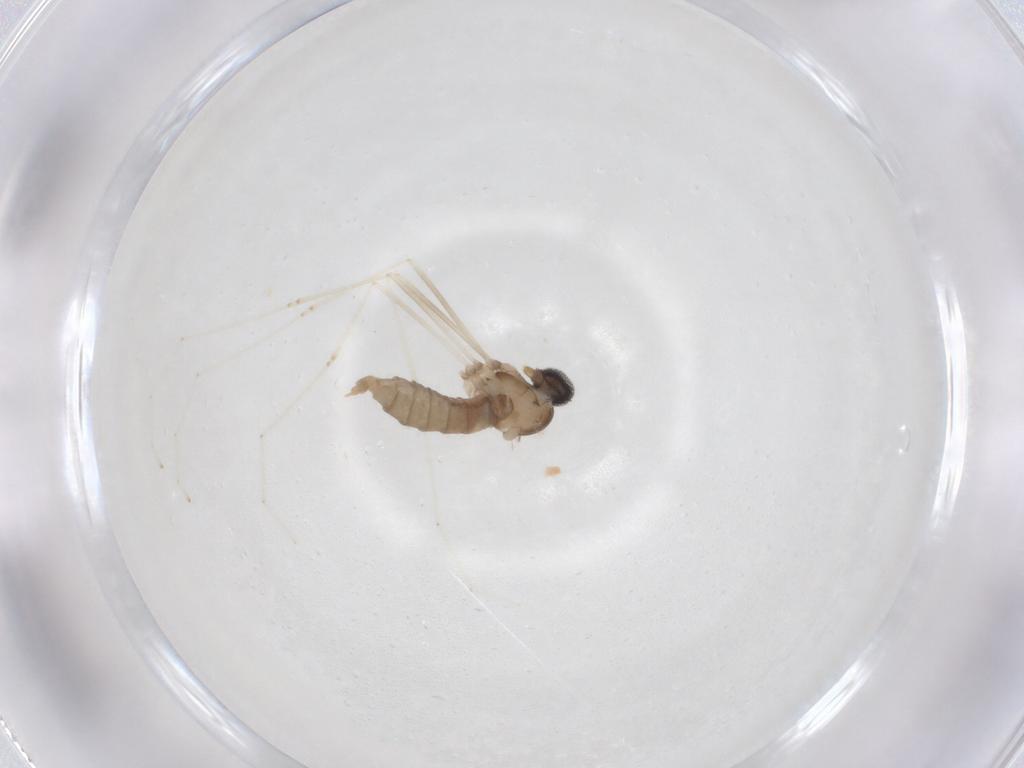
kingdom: Animalia
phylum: Arthropoda
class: Insecta
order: Diptera
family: Cecidomyiidae
